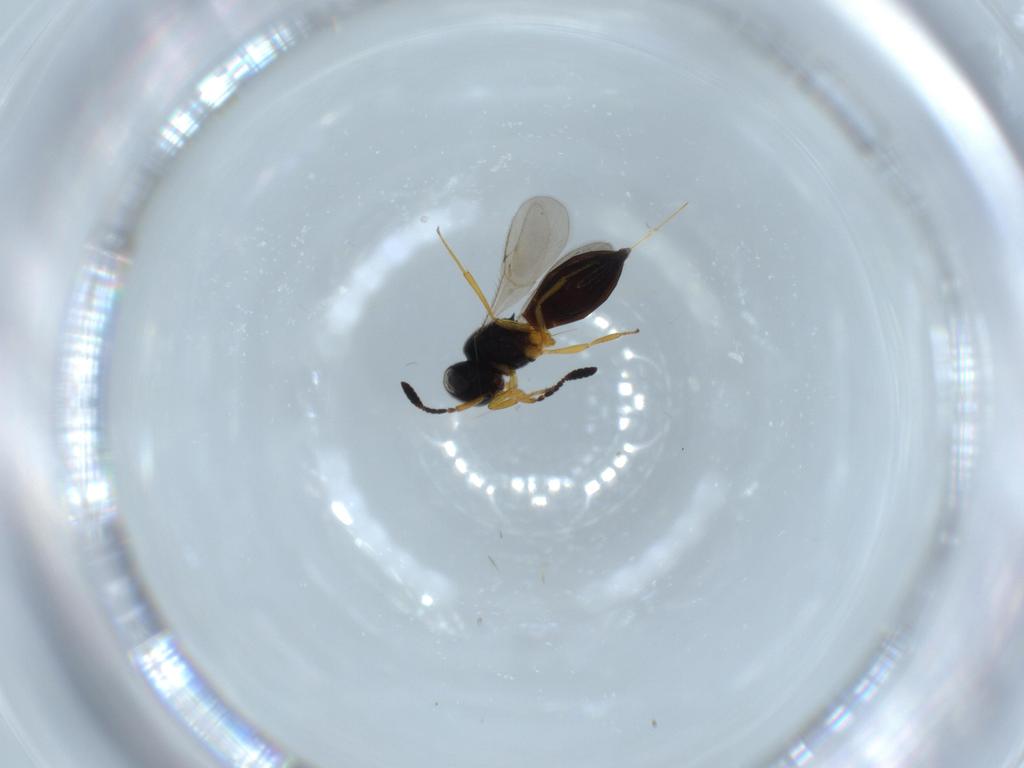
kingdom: Animalia
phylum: Arthropoda
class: Insecta
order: Hymenoptera
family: Scelionidae
